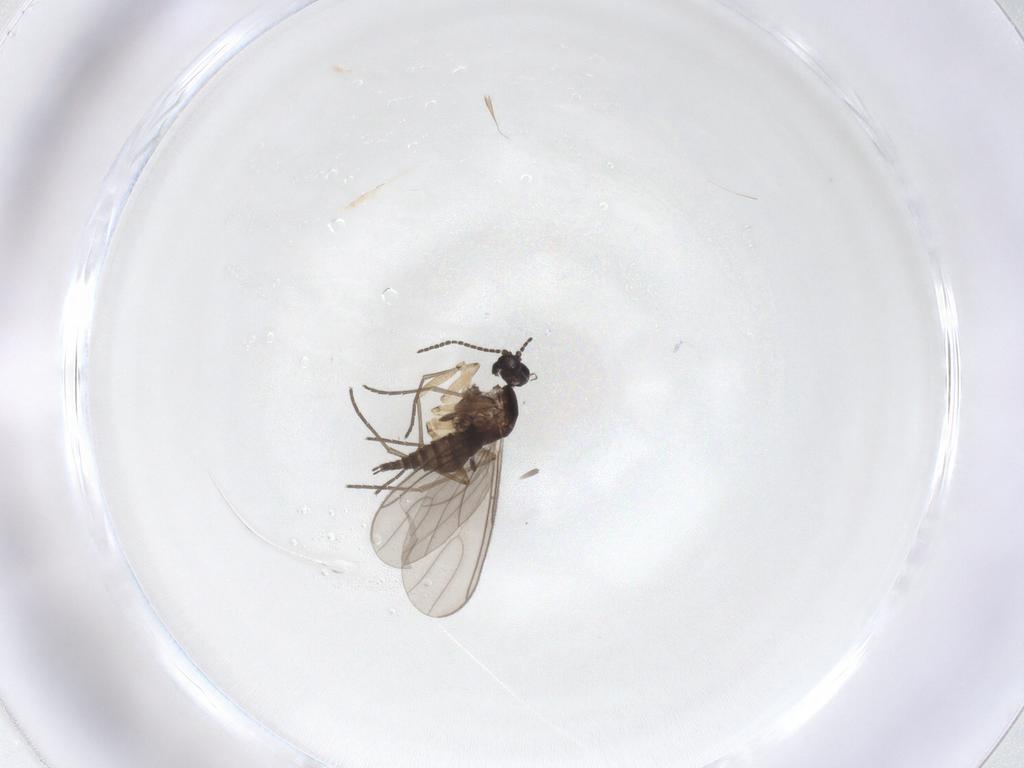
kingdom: Animalia
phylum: Arthropoda
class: Insecta
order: Diptera
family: Sciaridae
